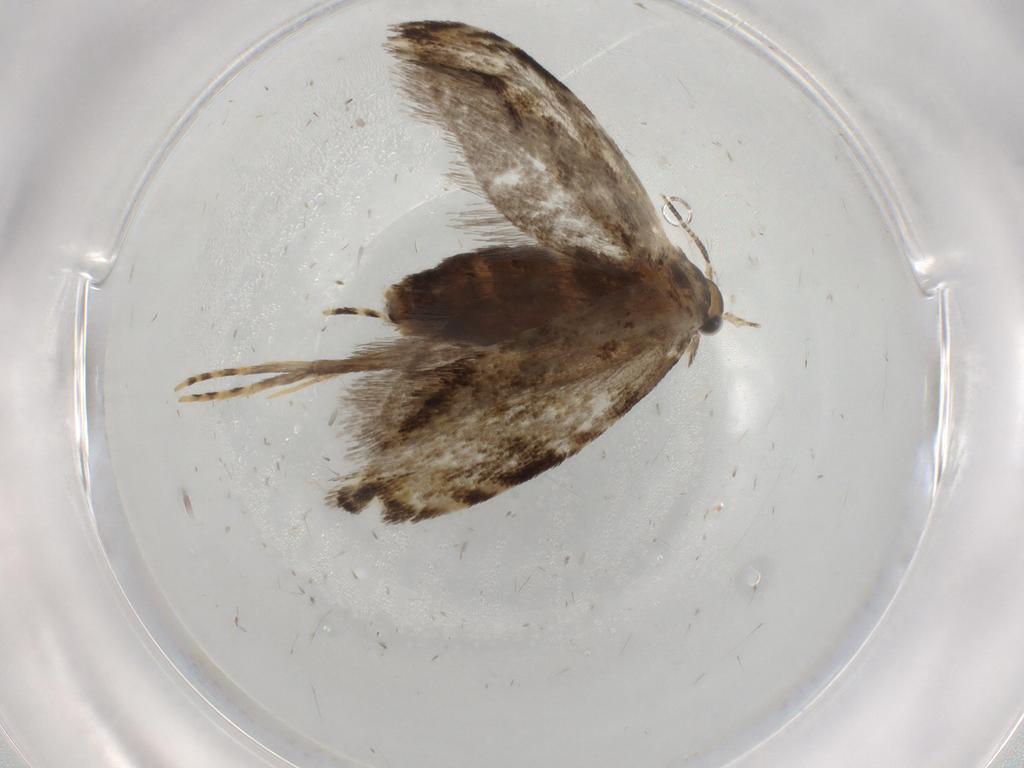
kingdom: Animalia
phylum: Arthropoda
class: Insecta
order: Lepidoptera
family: Tineidae
